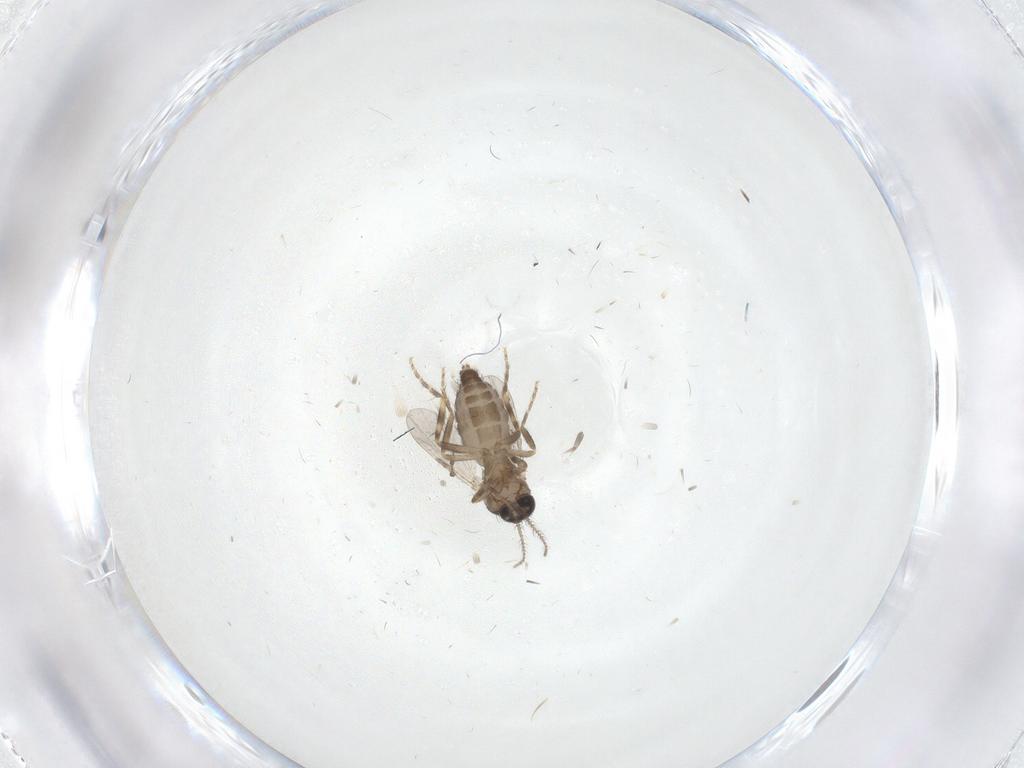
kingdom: Animalia
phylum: Arthropoda
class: Insecta
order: Diptera
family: Ceratopogonidae
